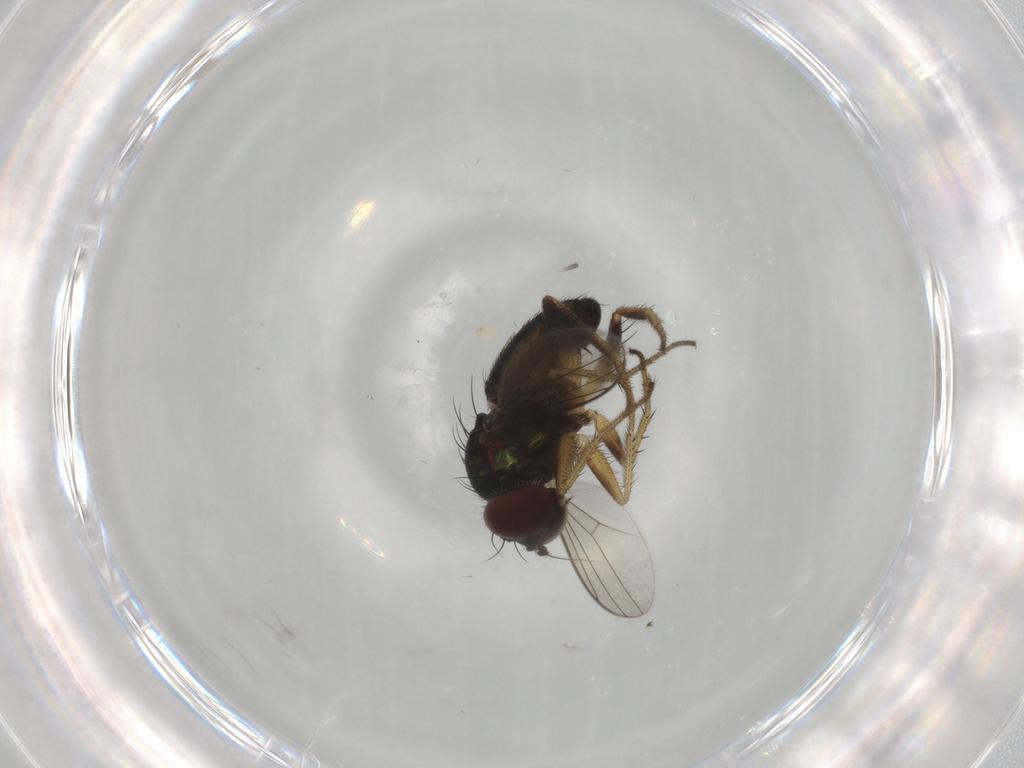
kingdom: Animalia
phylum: Arthropoda
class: Insecta
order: Diptera
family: Dolichopodidae
